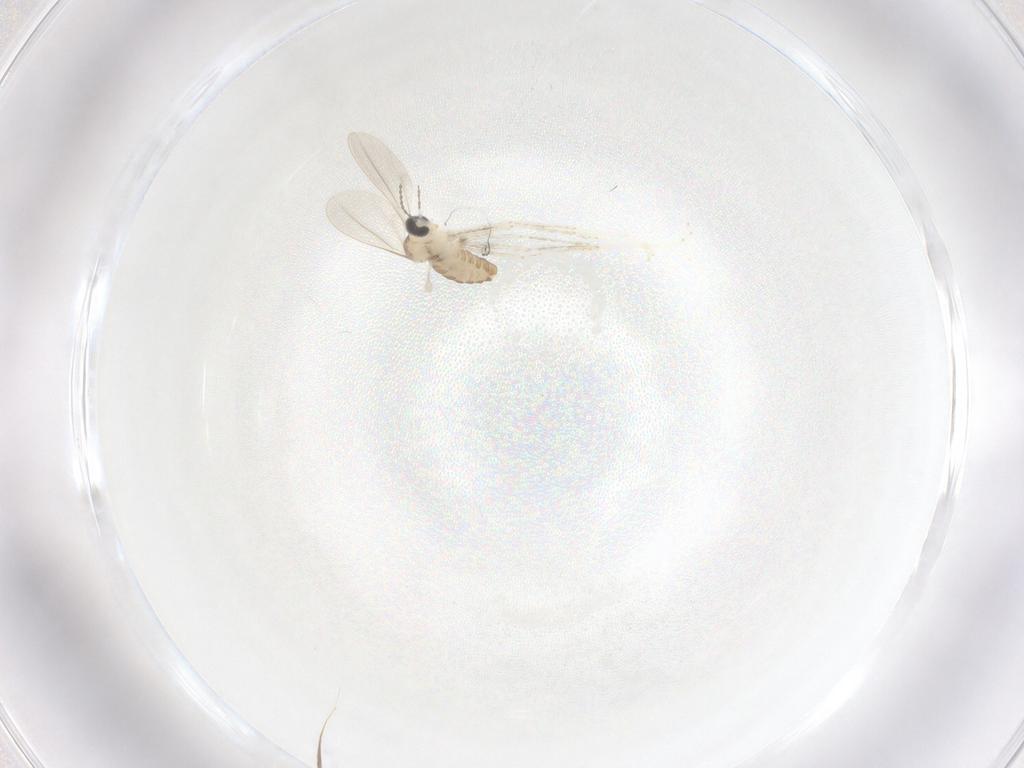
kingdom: Animalia
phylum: Arthropoda
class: Insecta
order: Diptera
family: Cecidomyiidae
